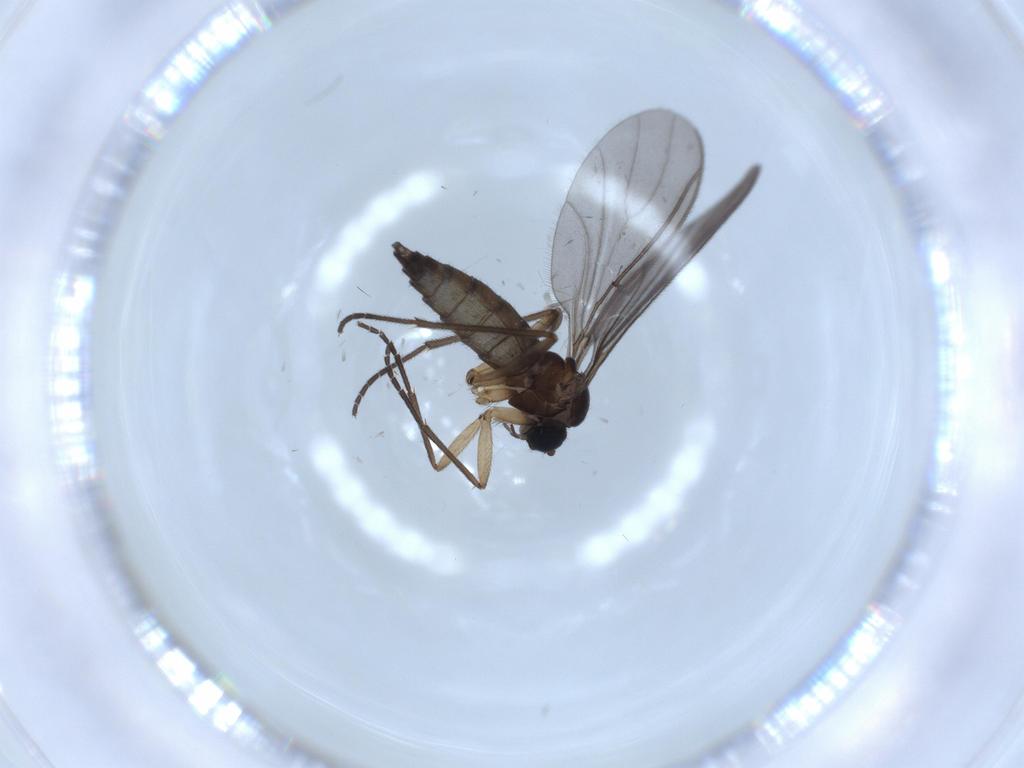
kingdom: Animalia
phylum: Arthropoda
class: Insecta
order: Diptera
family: Sciaridae
